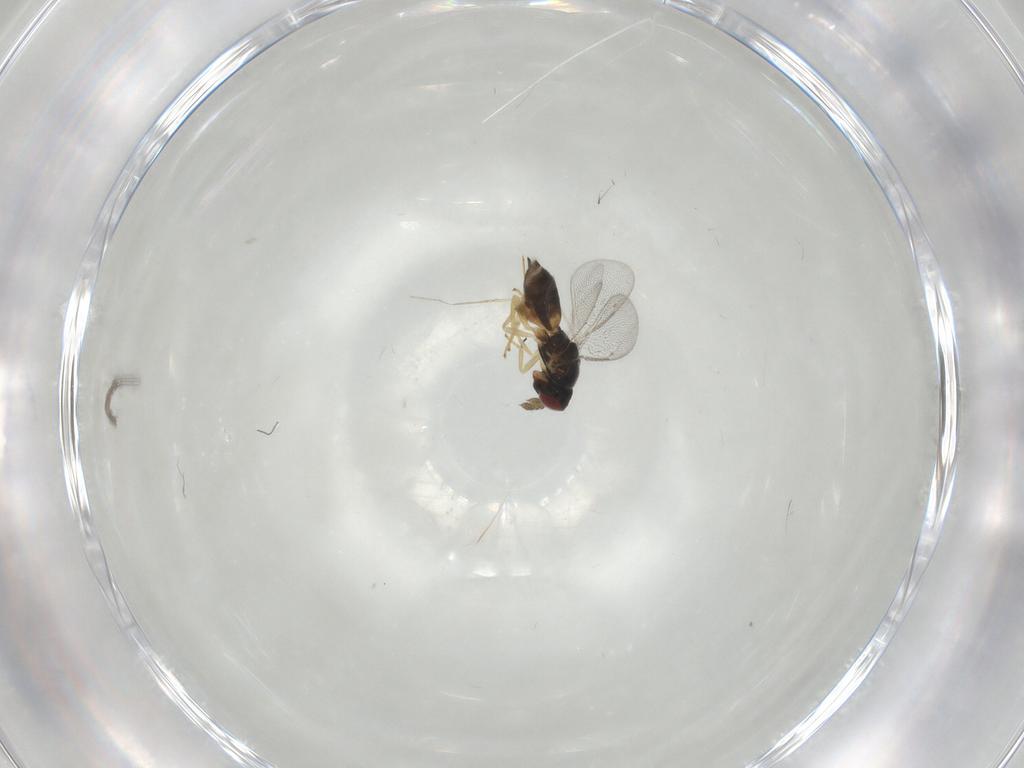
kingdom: Animalia
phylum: Arthropoda
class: Insecta
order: Hymenoptera
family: Eulophidae
